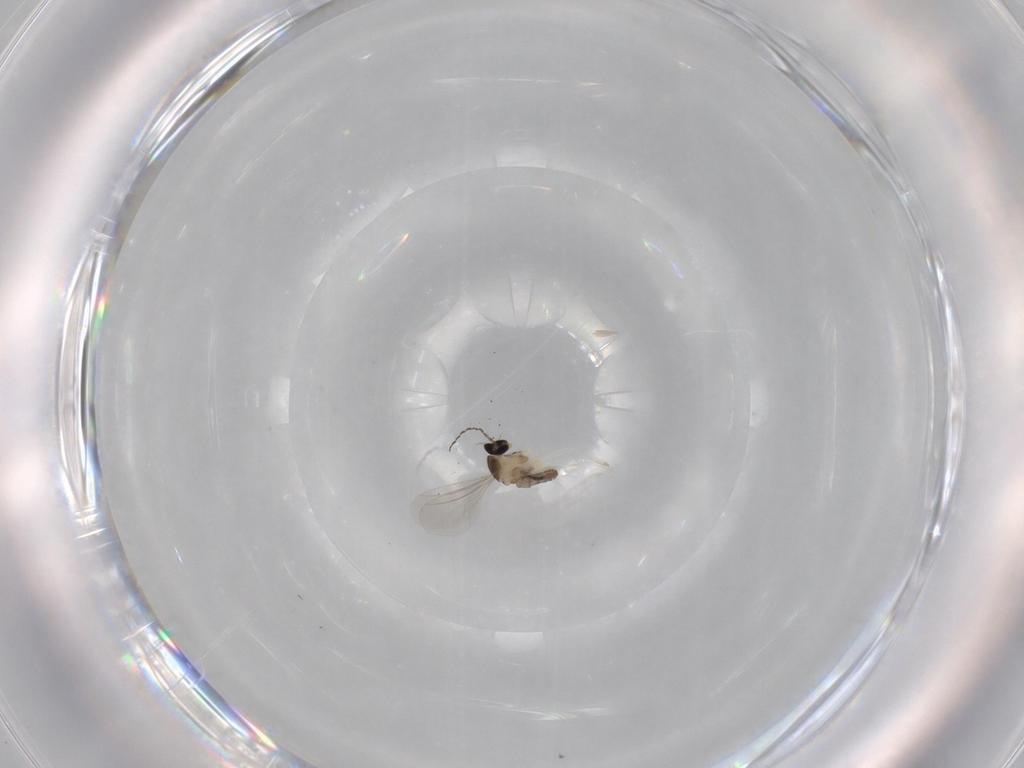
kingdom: Animalia
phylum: Arthropoda
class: Insecta
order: Diptera
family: Cecidomyiidae
